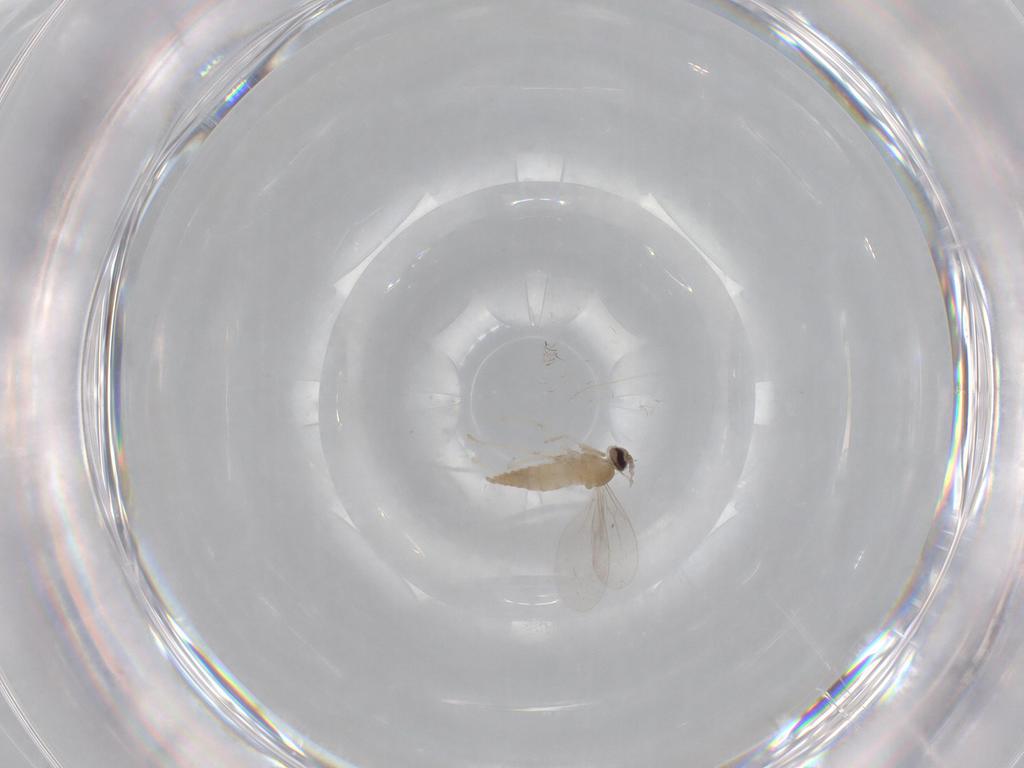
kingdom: Animalia
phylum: Arthropoda
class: Insecta
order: Diptera
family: Cecidomyiidae
